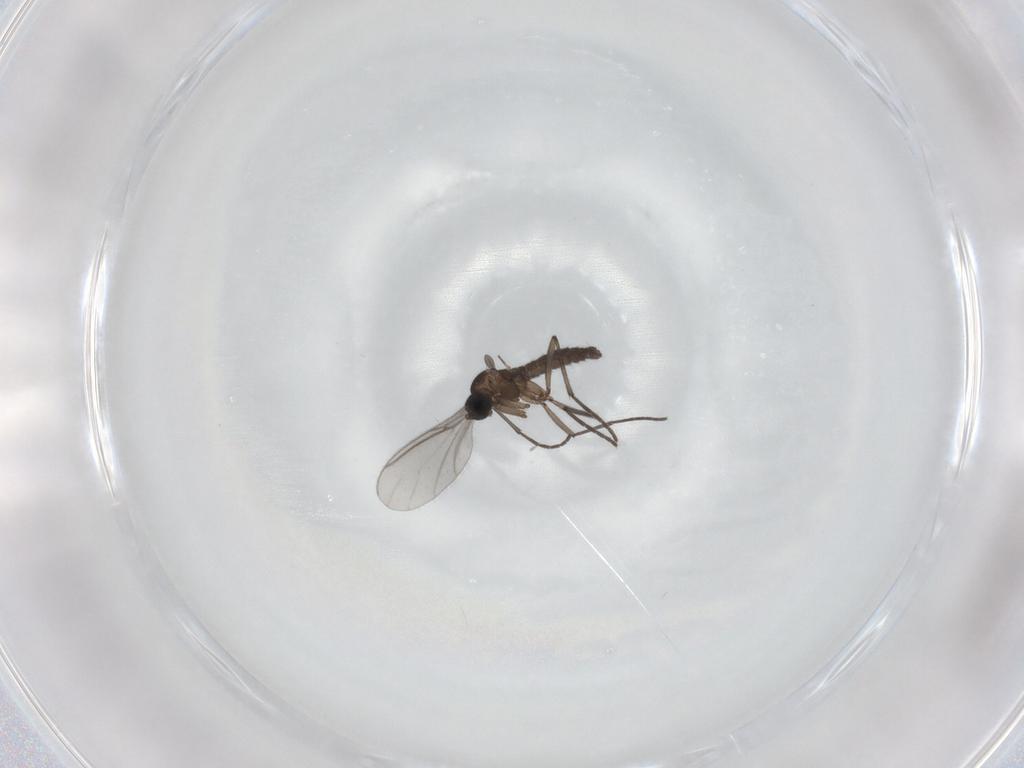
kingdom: Animalia
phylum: Arthropoda
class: Insecta
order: Diptera
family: Sciaridae
